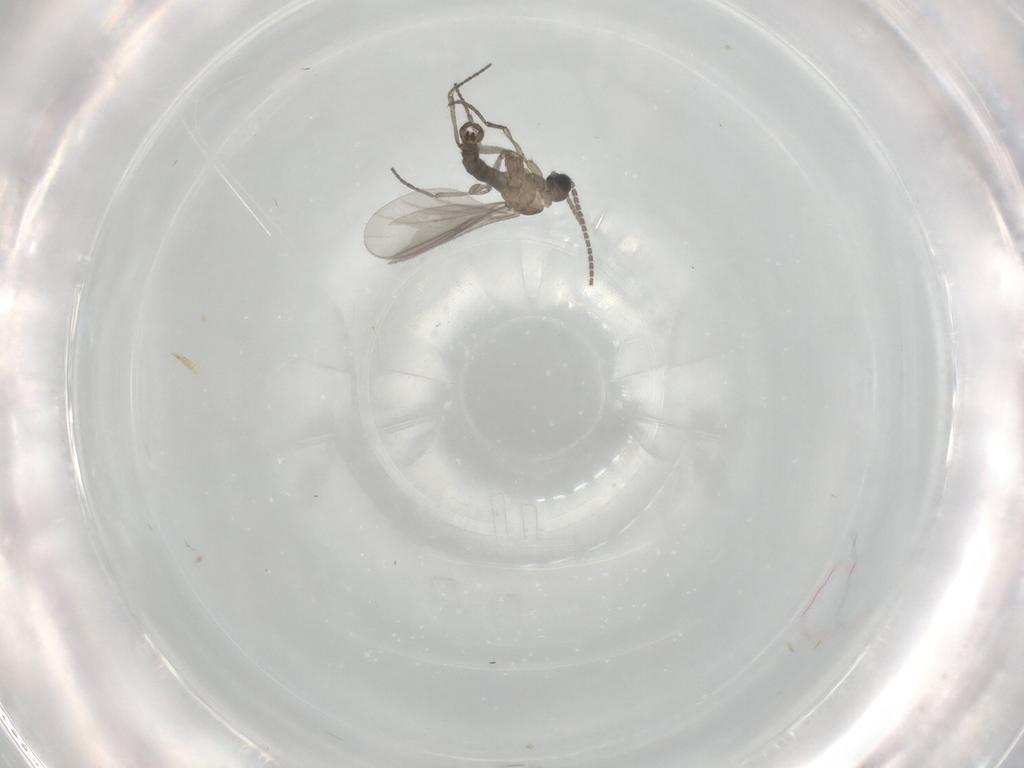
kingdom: Animalia
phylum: Arthropoda
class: Insecta
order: Diptera
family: Sciaridae
